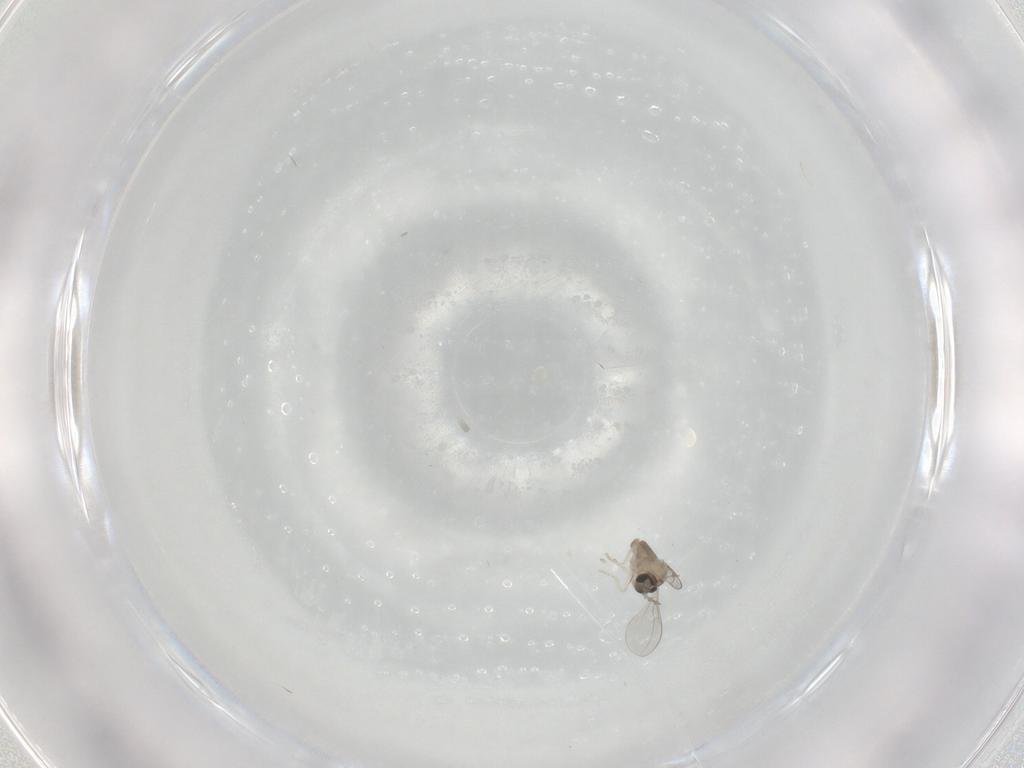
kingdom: Animalia
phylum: Arthropoda
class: Insecta
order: Diptera
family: Cecidomyiidae
